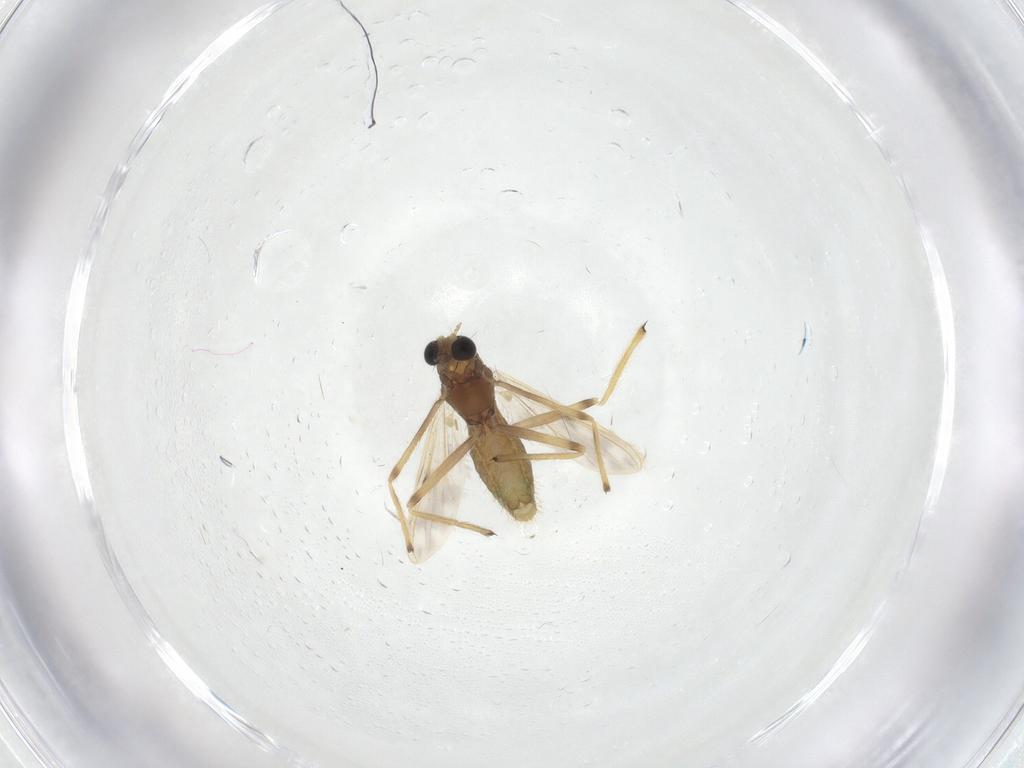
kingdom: Animalia
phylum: Arthropoda
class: Insecta
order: Diptera
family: Chironomidae
